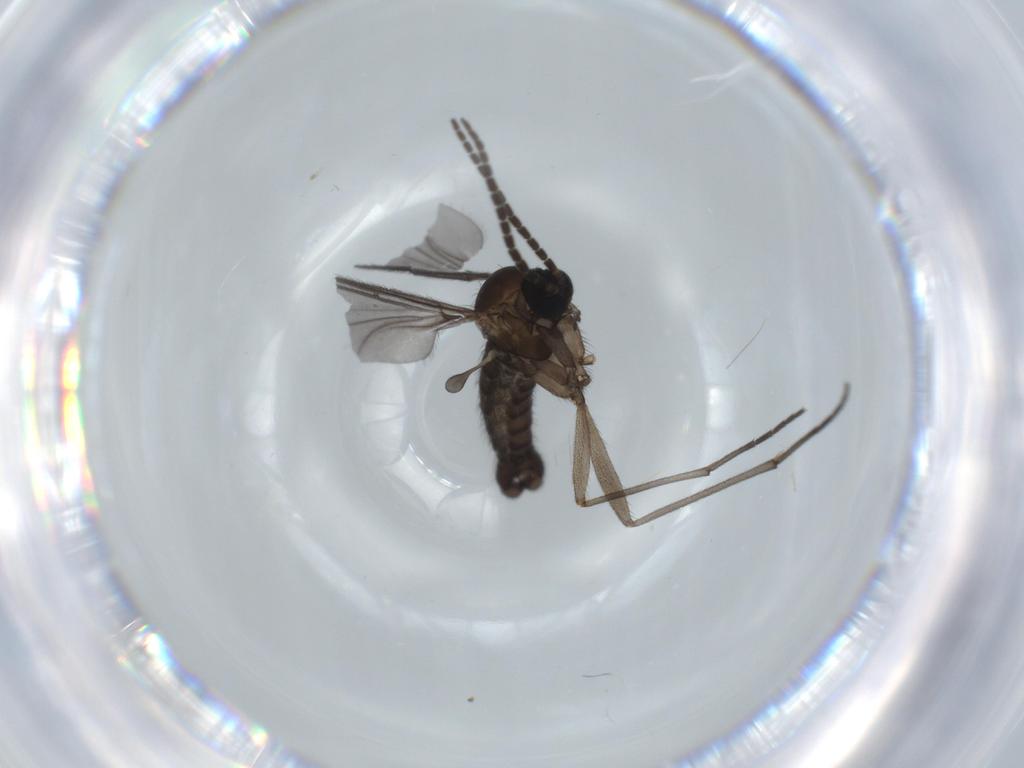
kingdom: Animalia
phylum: Arthropoda
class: Insecta
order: Diptera
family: Sciaridae
